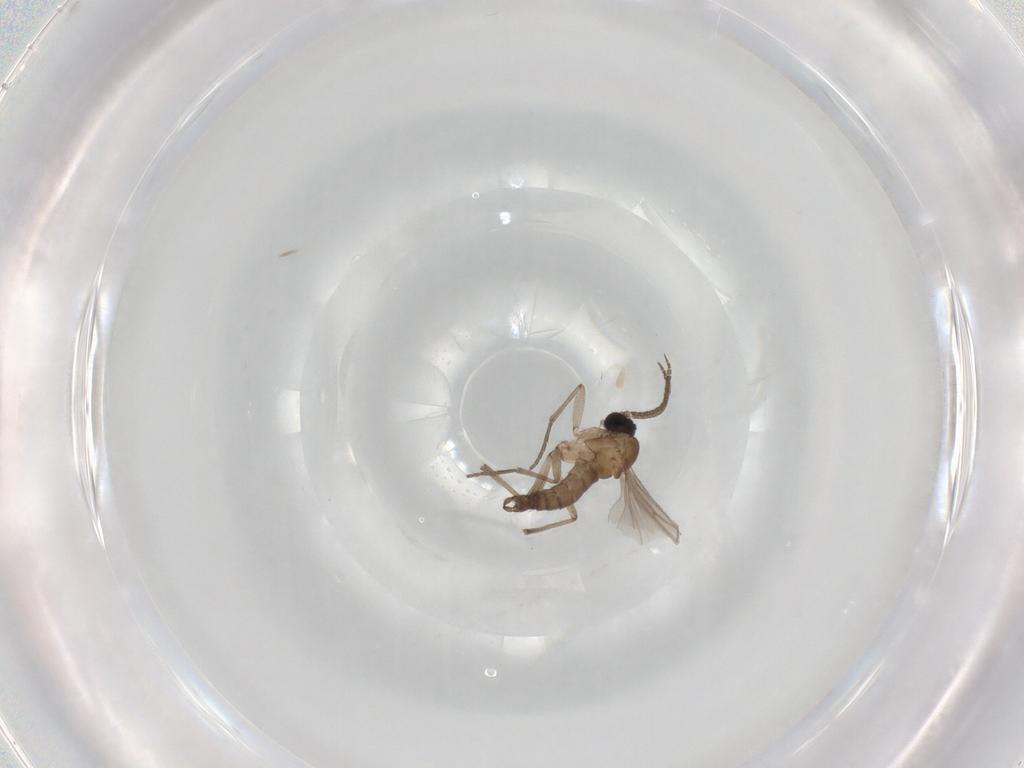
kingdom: Animalia
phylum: Arthropoda
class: Insecta
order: Diptera
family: Sciaridae
